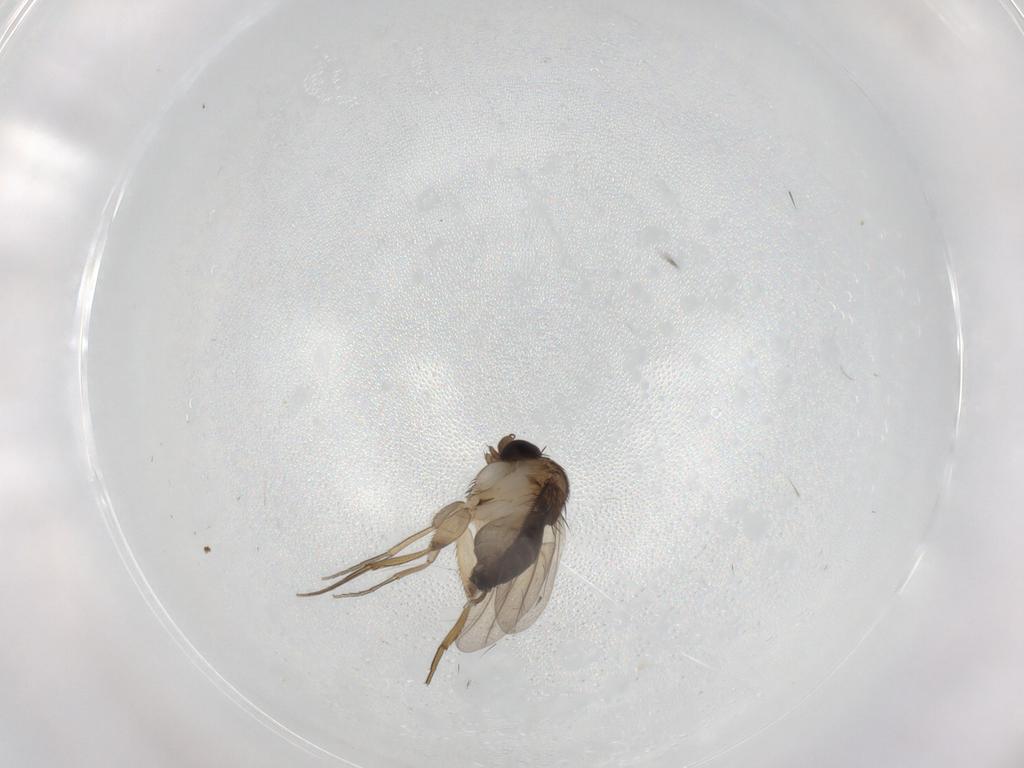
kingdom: Animalia
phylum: Arthropoda
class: Insecta
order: Diptera
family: Phoridae
